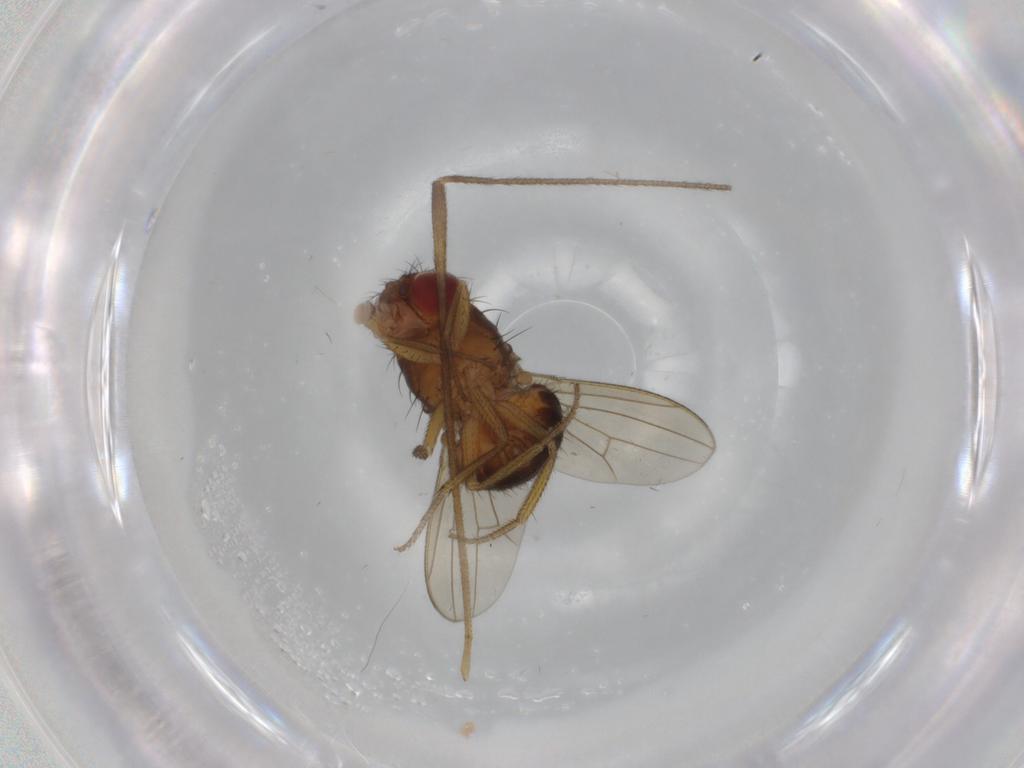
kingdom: Animalia
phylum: Arthropoda
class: Insecta
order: Diptera
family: Drosophilidae
